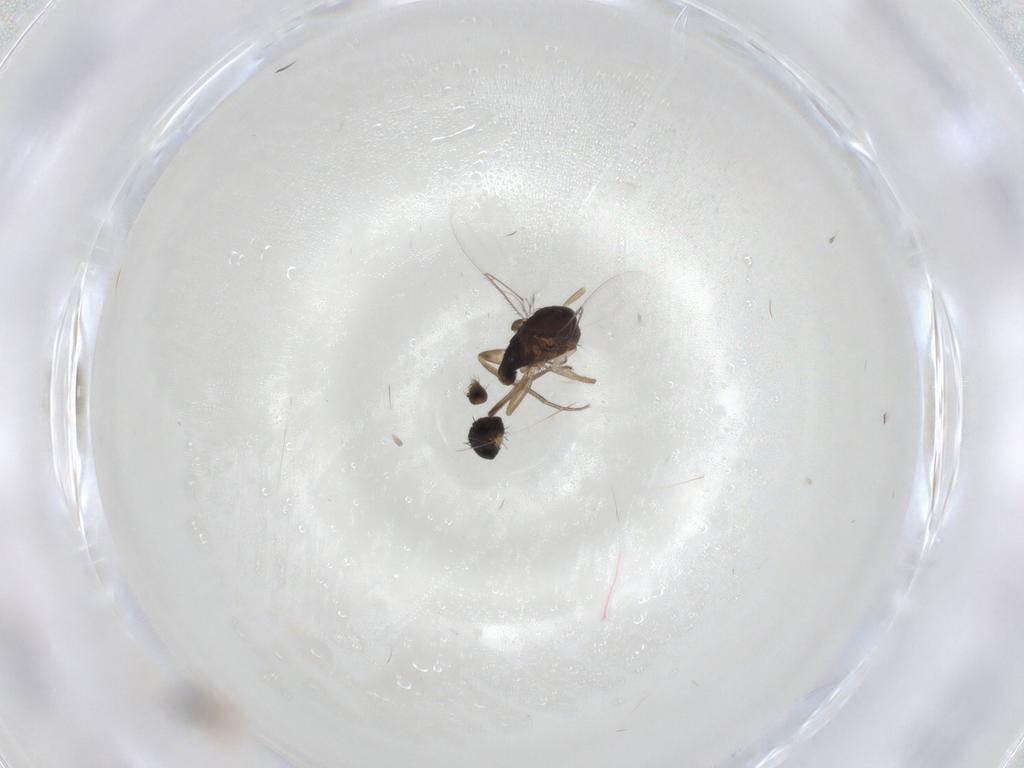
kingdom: Animalia
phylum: Arthropoda
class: Insecta
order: Diptera
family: Phoridae
